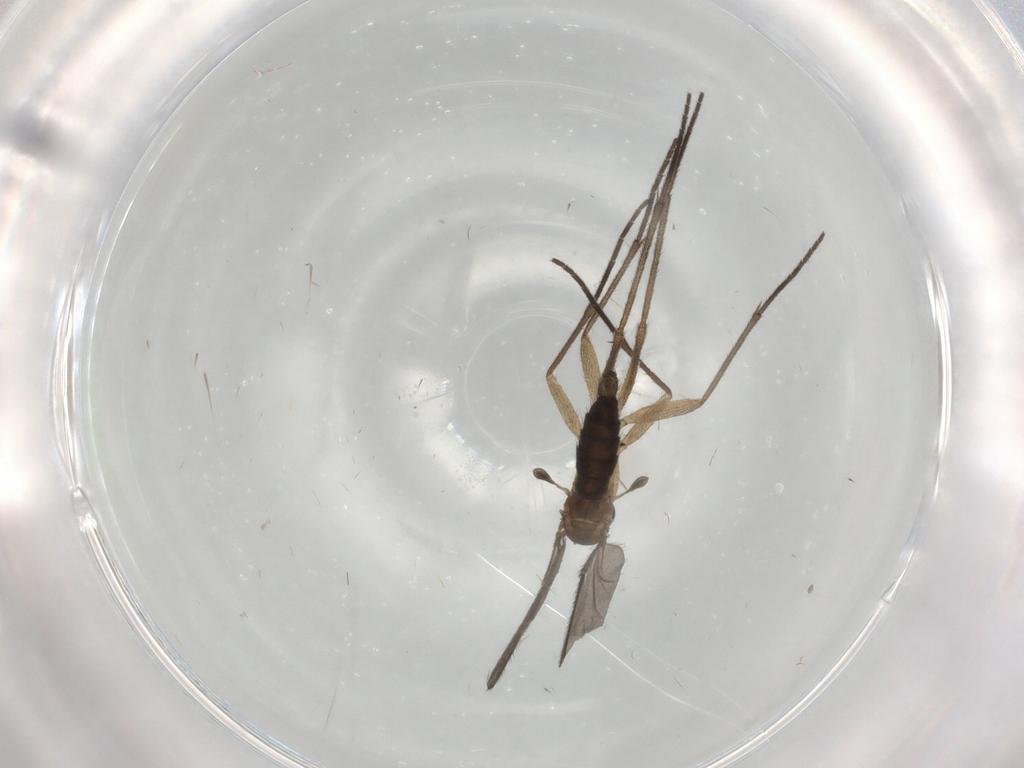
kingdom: Animalia
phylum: Arthropoda
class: Insecta
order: Diptera
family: Sciaridae
